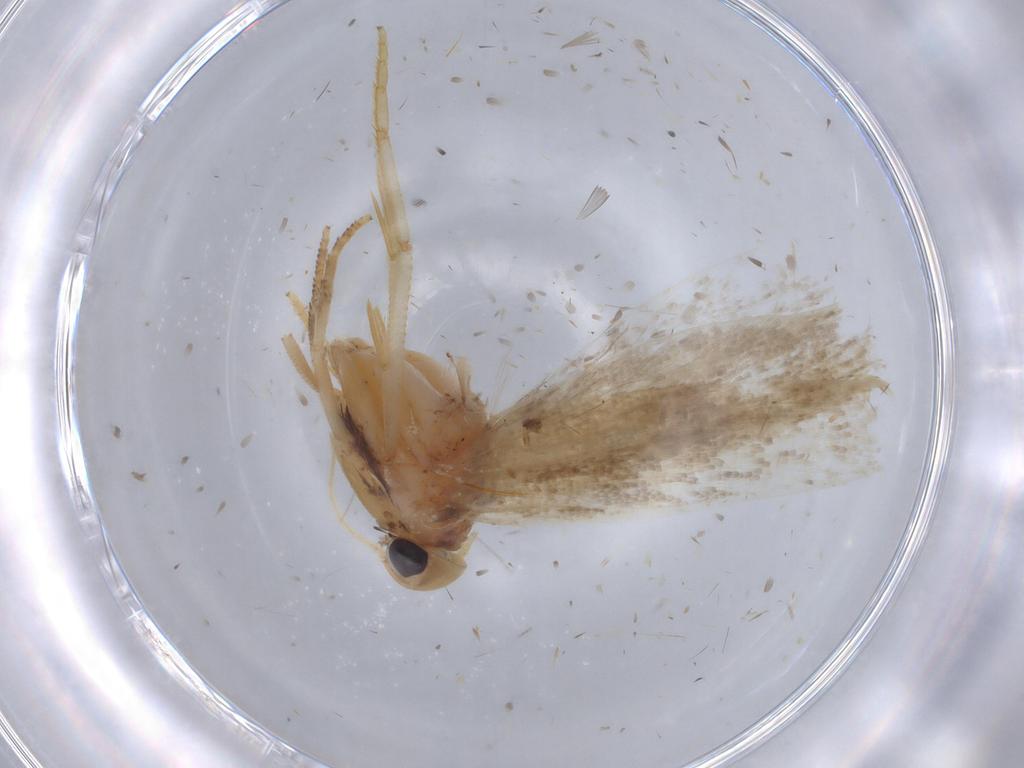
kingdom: Animalia
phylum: Arthropoda
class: Insecta
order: Lepidoptera
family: Gelechiidae
